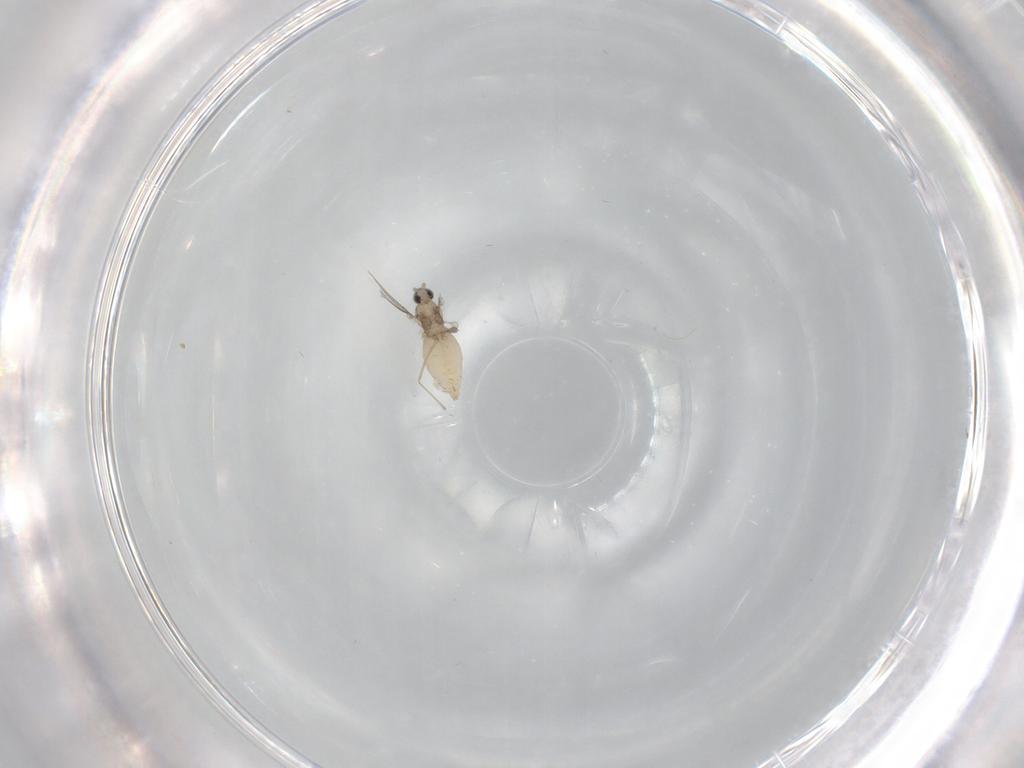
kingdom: Animalia
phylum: Arthropoda
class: Insecta
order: Diptera
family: Cecidomyiidae
